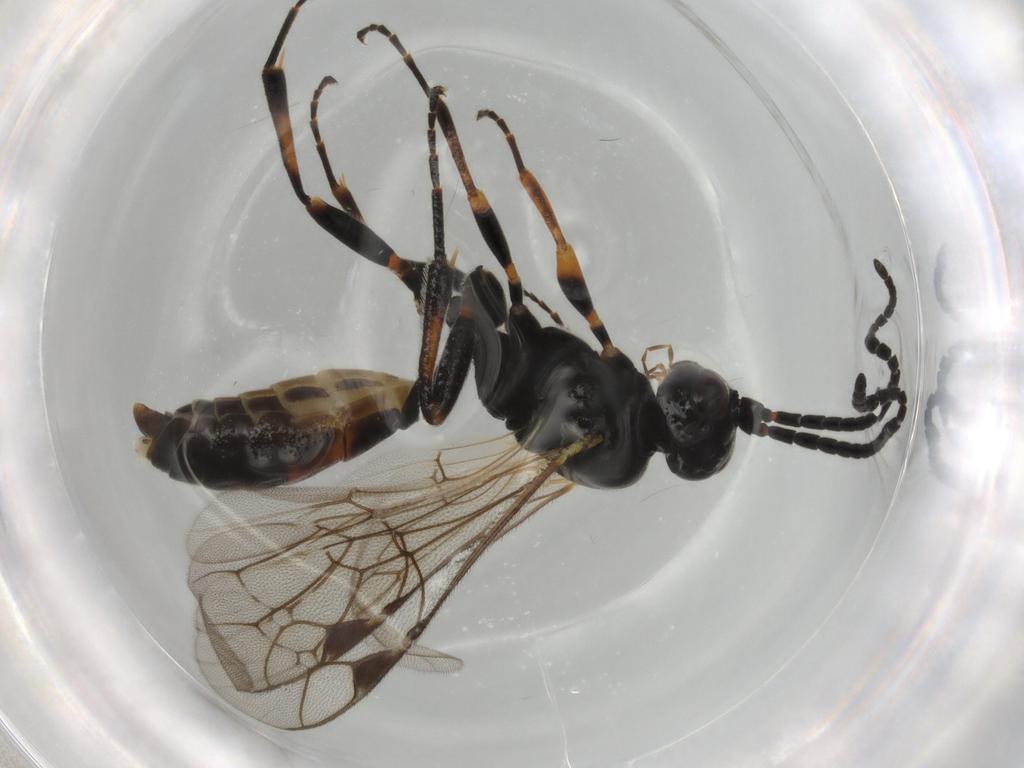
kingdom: Animalia
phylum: Arthropoda
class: Insecta
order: Hymenoptera
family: Ichneumonidae
